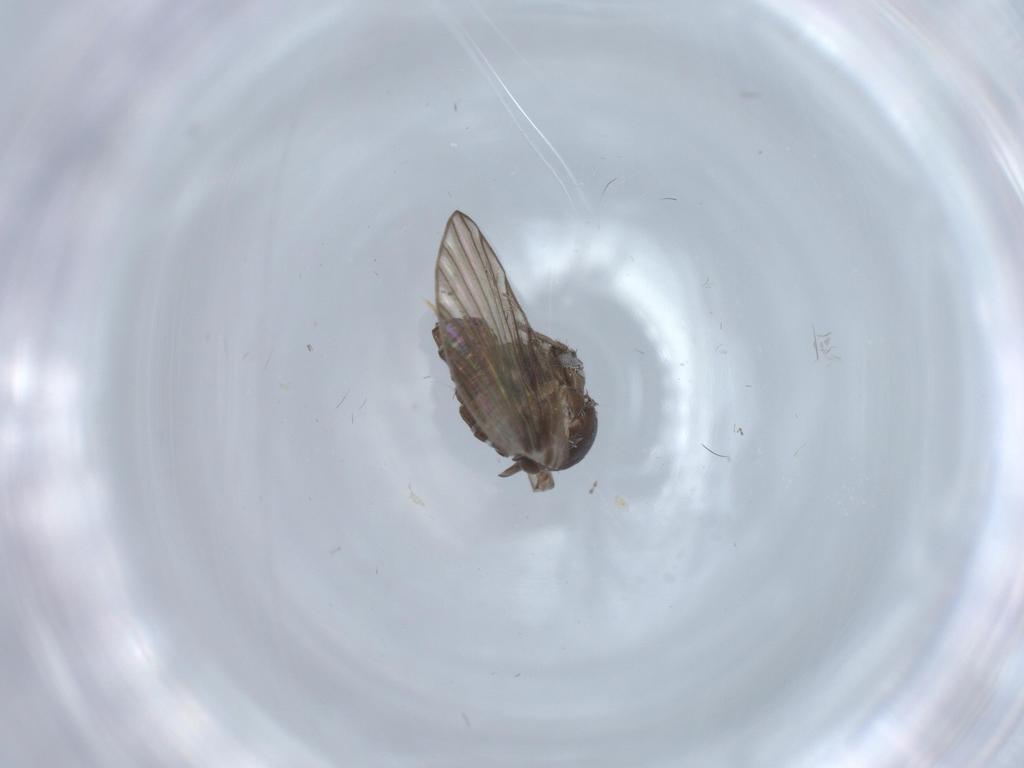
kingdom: Animalia
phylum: Arthropoda
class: Insecta
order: Diptera
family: Psychodidae
